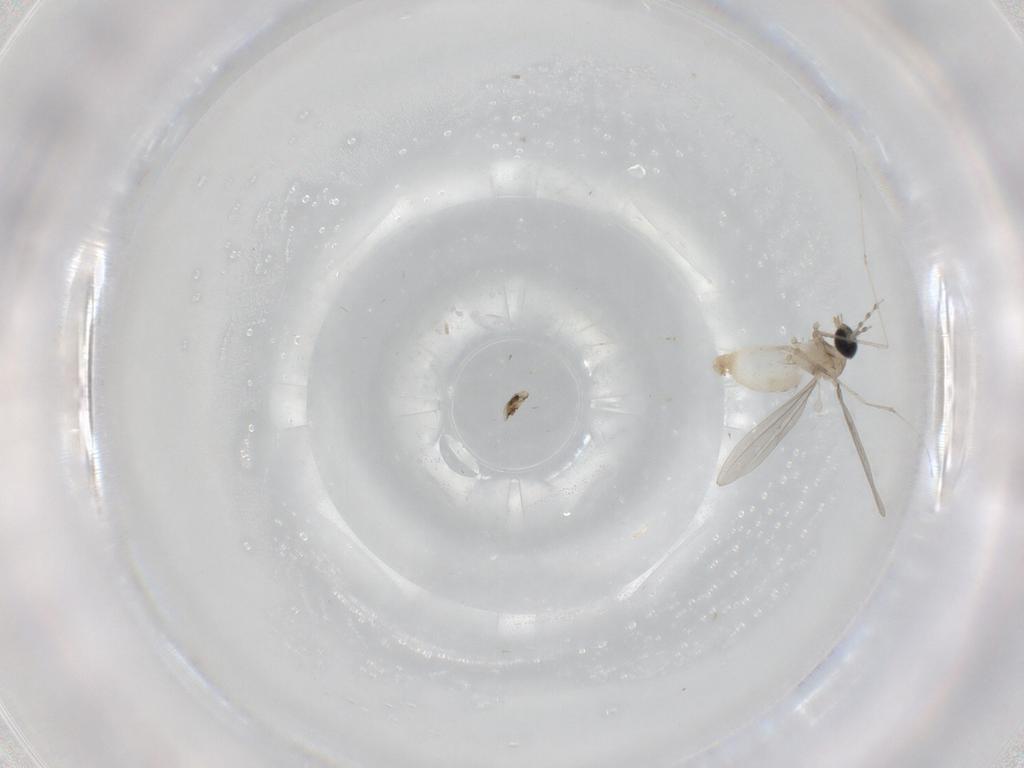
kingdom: Animalia
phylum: Arthropoda
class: Insecta
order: Diptera
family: Cecidomyiidae
